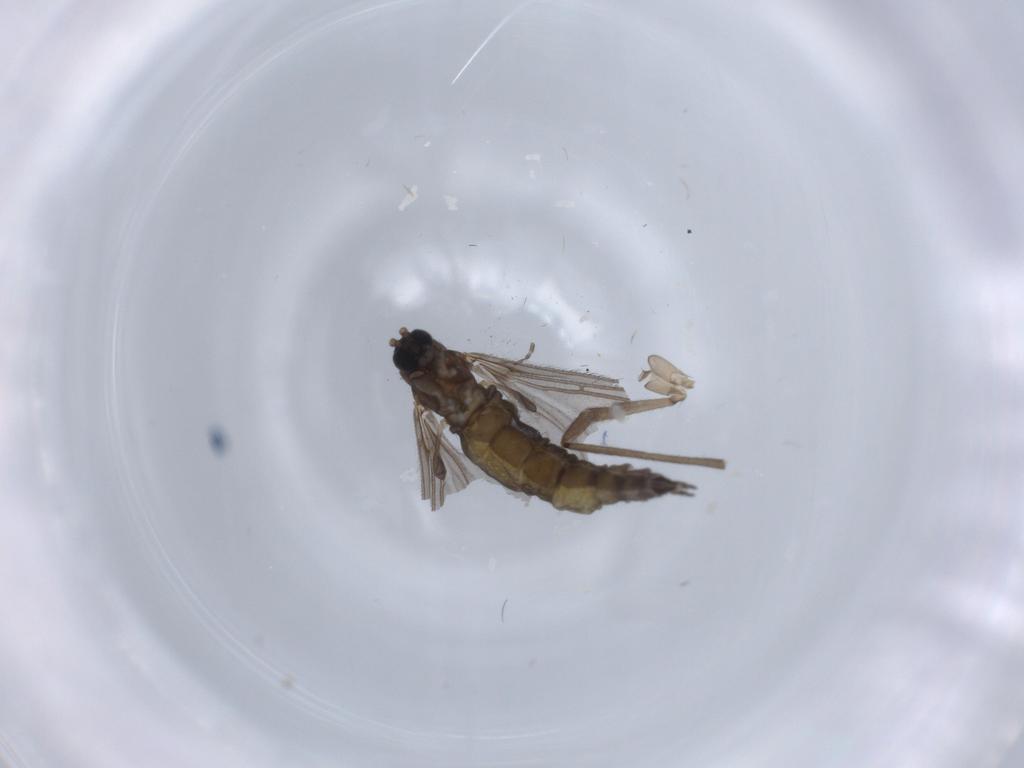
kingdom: Animalia
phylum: Arthropoda
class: Insecta
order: Diptera
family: Sciaridae
